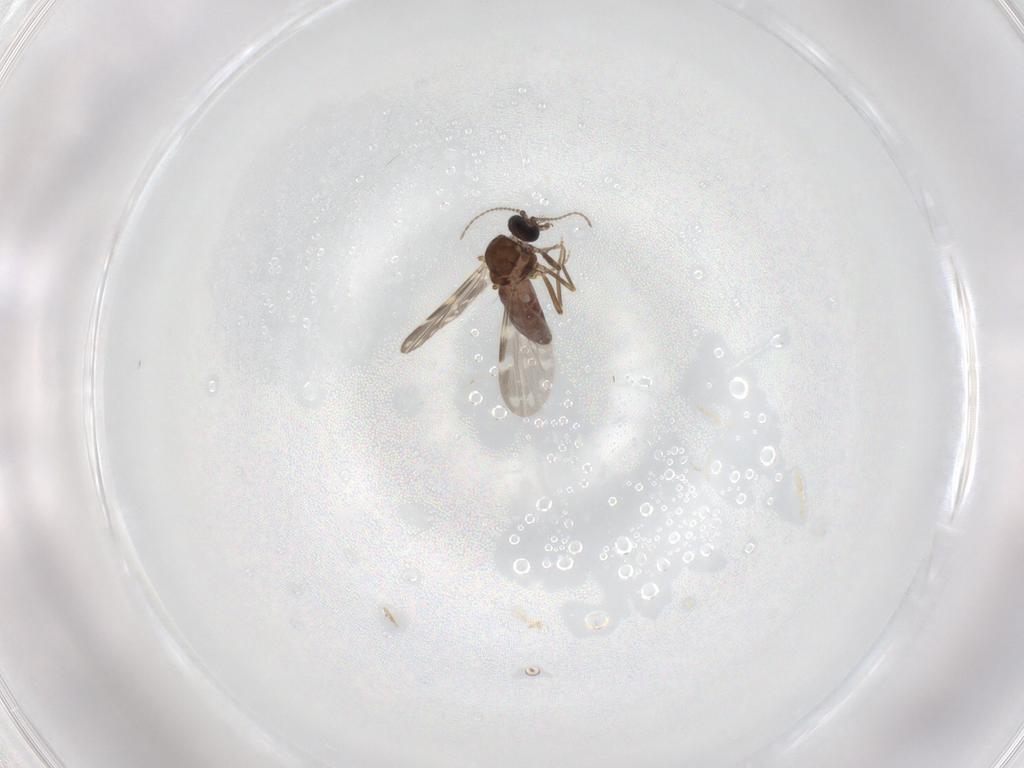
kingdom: Animalia
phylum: Arthropoda
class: Insecta
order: Diptera
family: Ceratopogonidae
